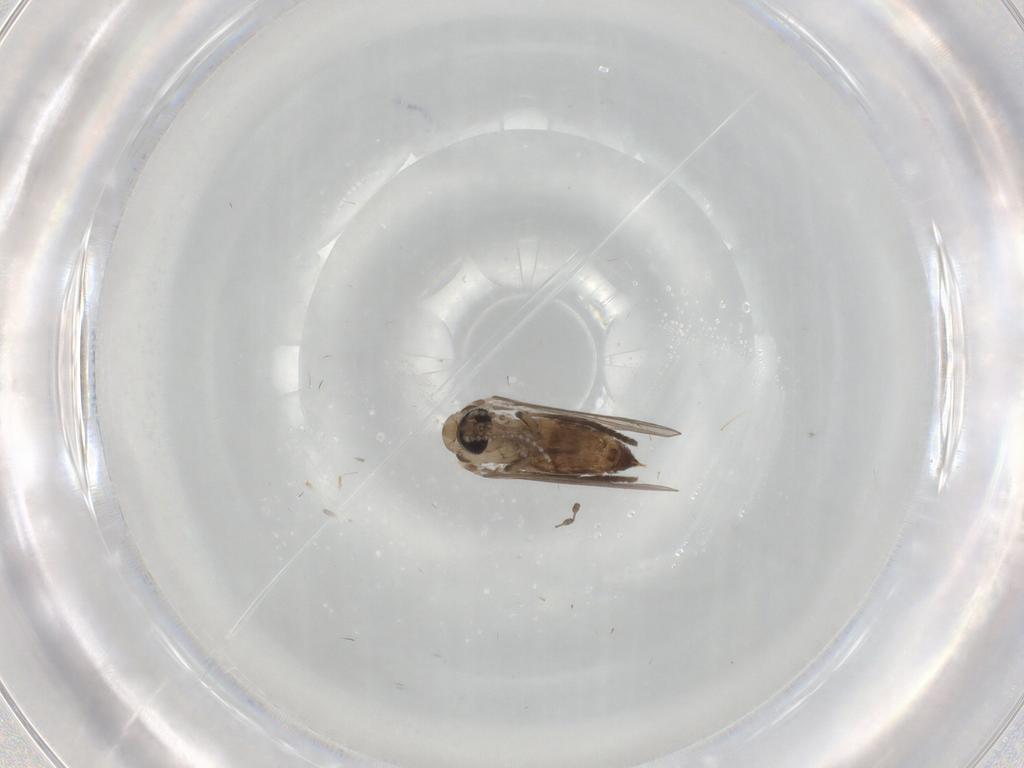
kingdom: Animalia
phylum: Arthropoda
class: Insecta
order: Diptera
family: Psychodidae
